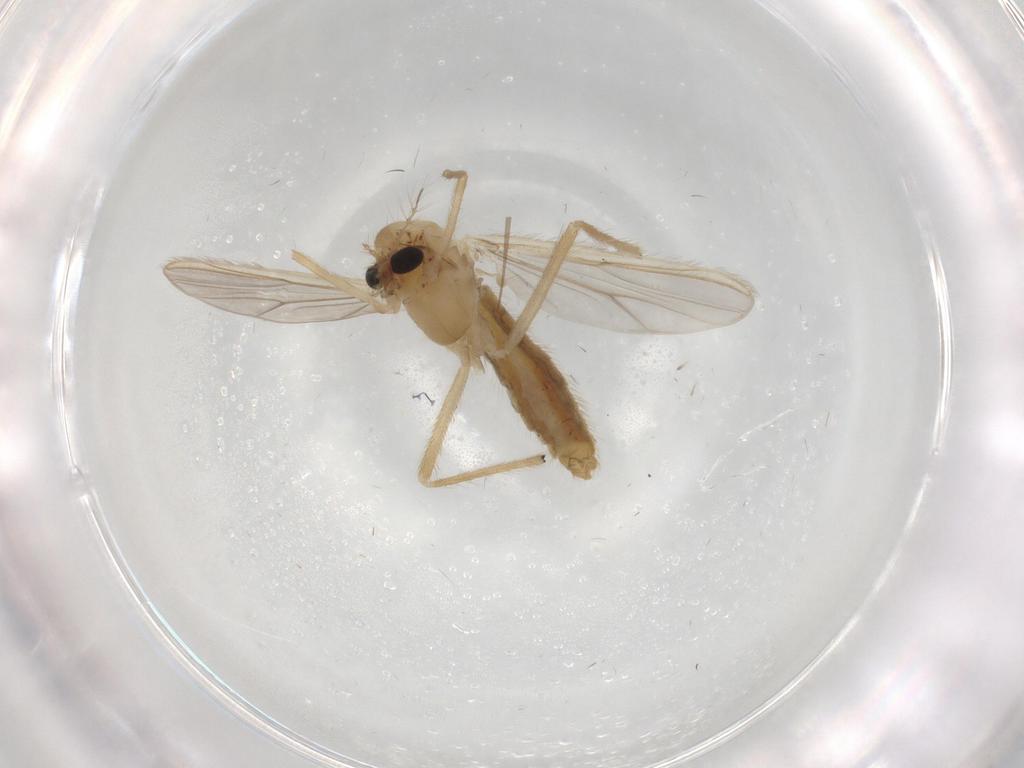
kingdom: Animalia
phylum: Arthropoda
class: Insecta
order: Diptera
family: Chironomidae
